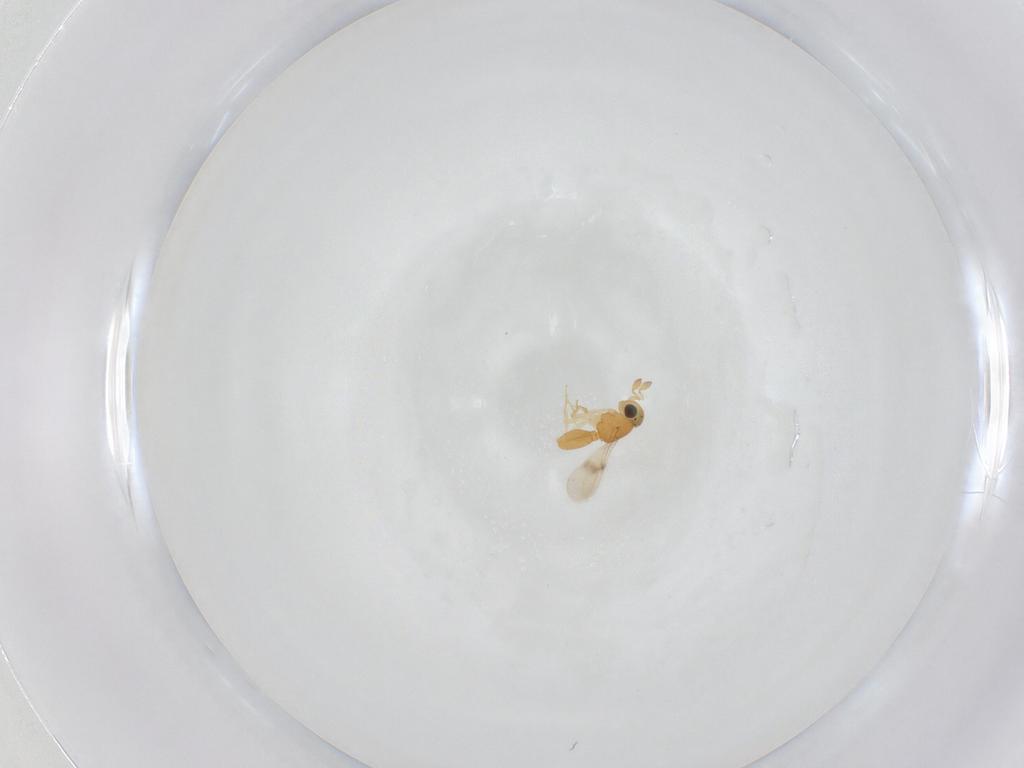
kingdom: Animalia
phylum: Arthropoda
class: Insecta
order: Hymenoptera
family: Scelionidae
